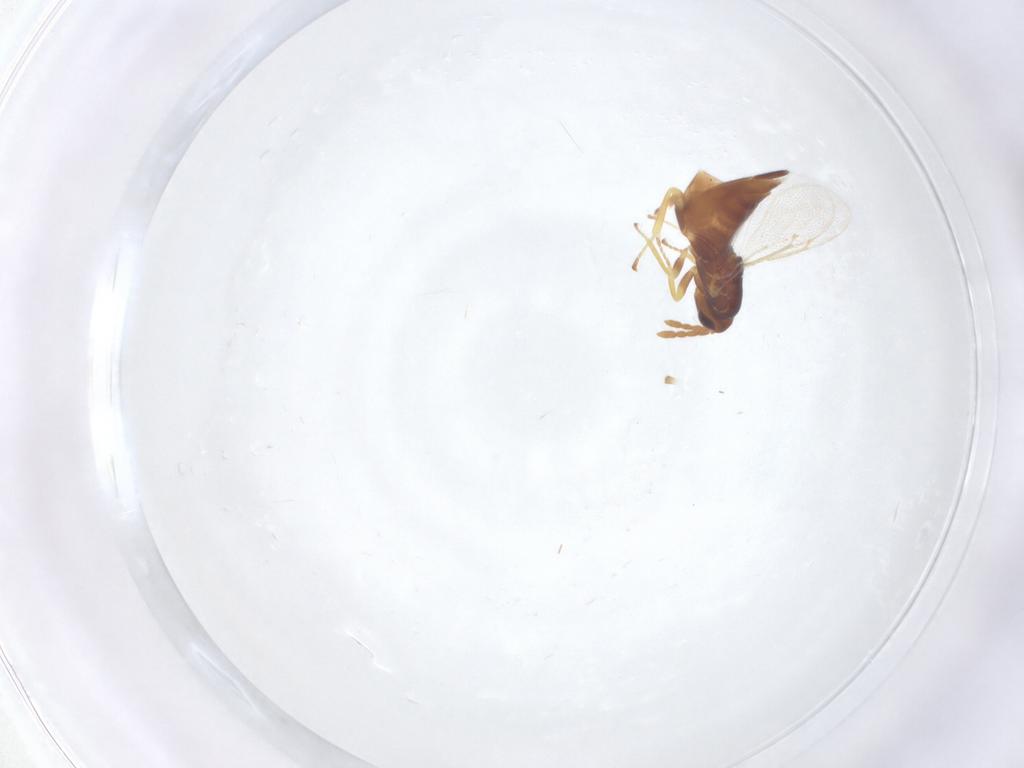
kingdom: Animalia
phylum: Arthropoda
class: Insecta
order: Hymenoptera
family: Eulophidae
